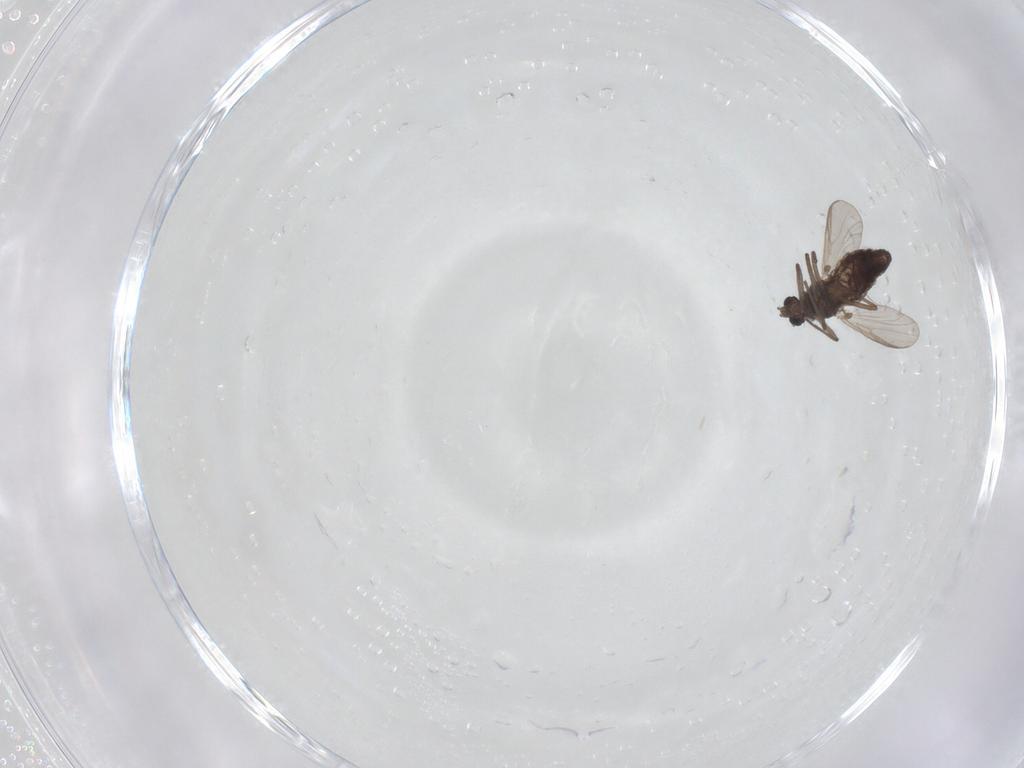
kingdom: Animalia
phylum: Arthropoda
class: Insecta
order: Diptera
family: Chironomidae
